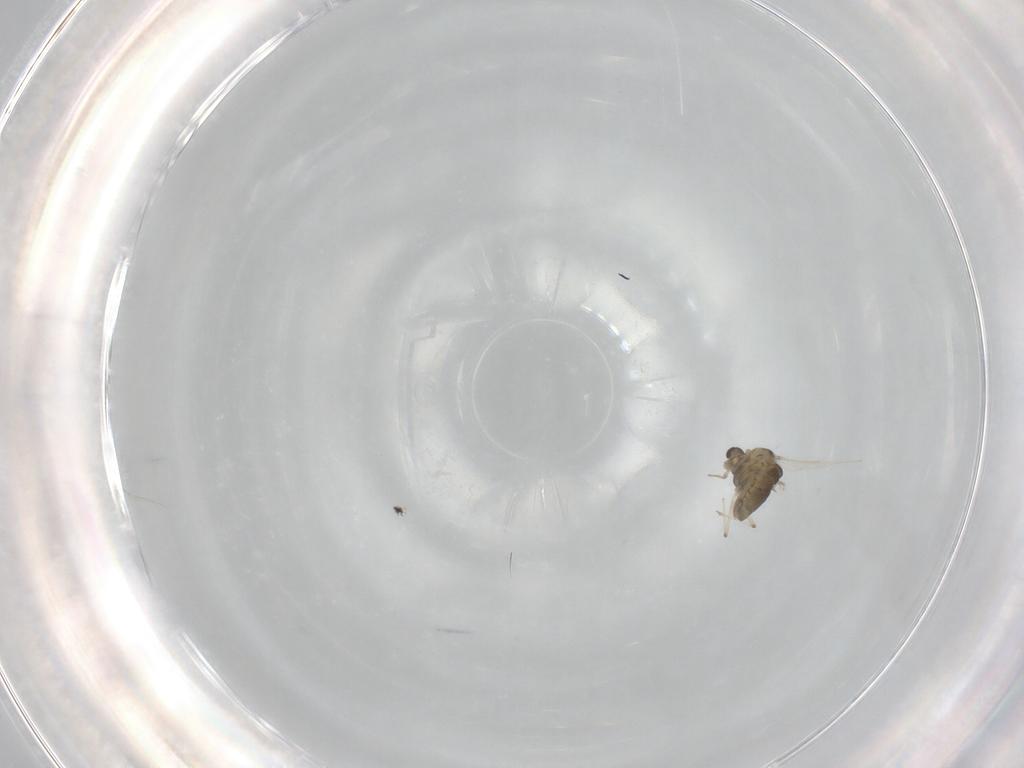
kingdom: Animalia
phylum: Arthropoda
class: Insecta
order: Diptera
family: Chironomidae
